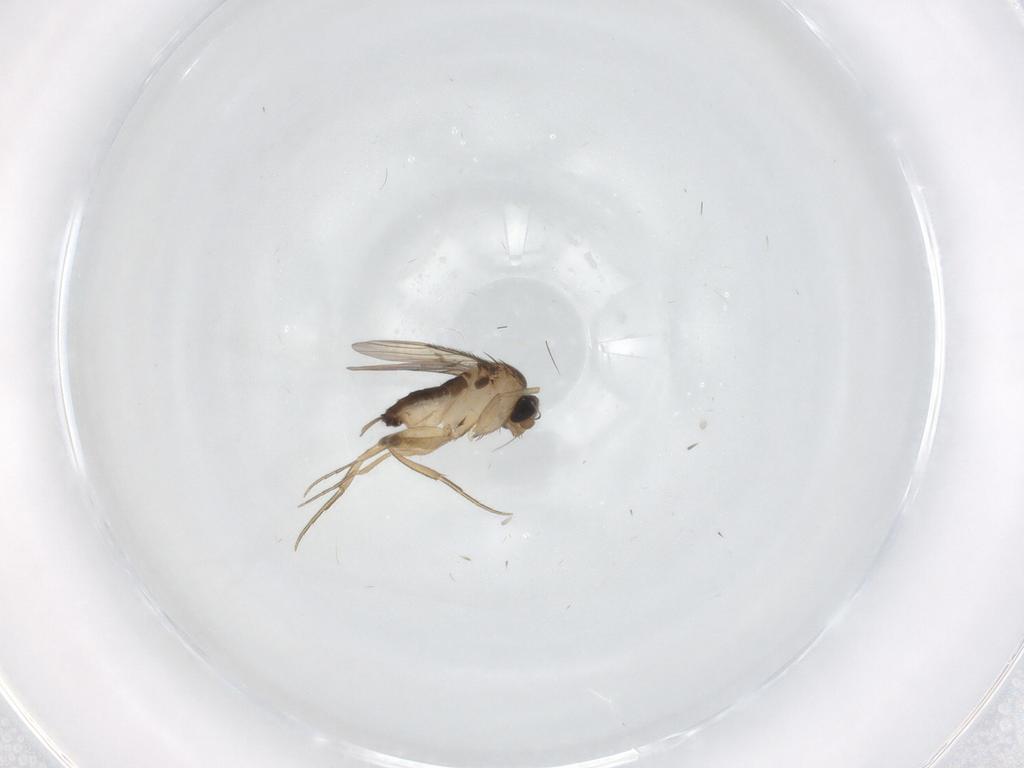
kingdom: Animalia
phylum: Arthropoda
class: Insecta
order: Diptera
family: Phoridae
